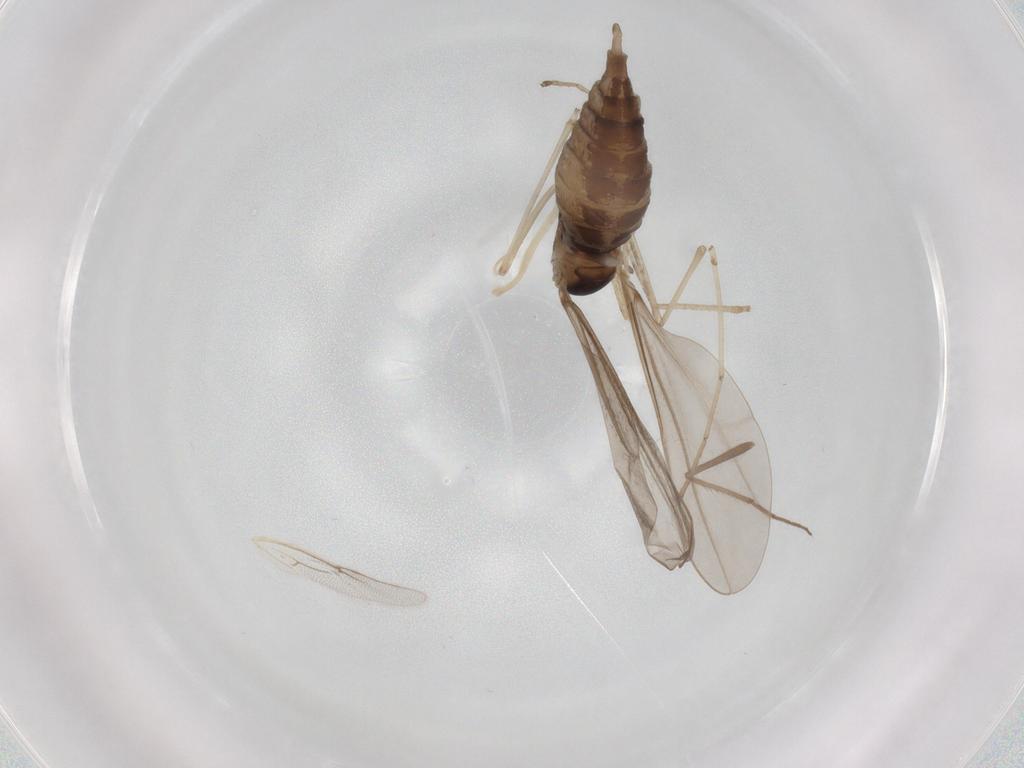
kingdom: Animalia
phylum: Arthropoda
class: Insecta
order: Diptera
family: Cecidomyiidae
